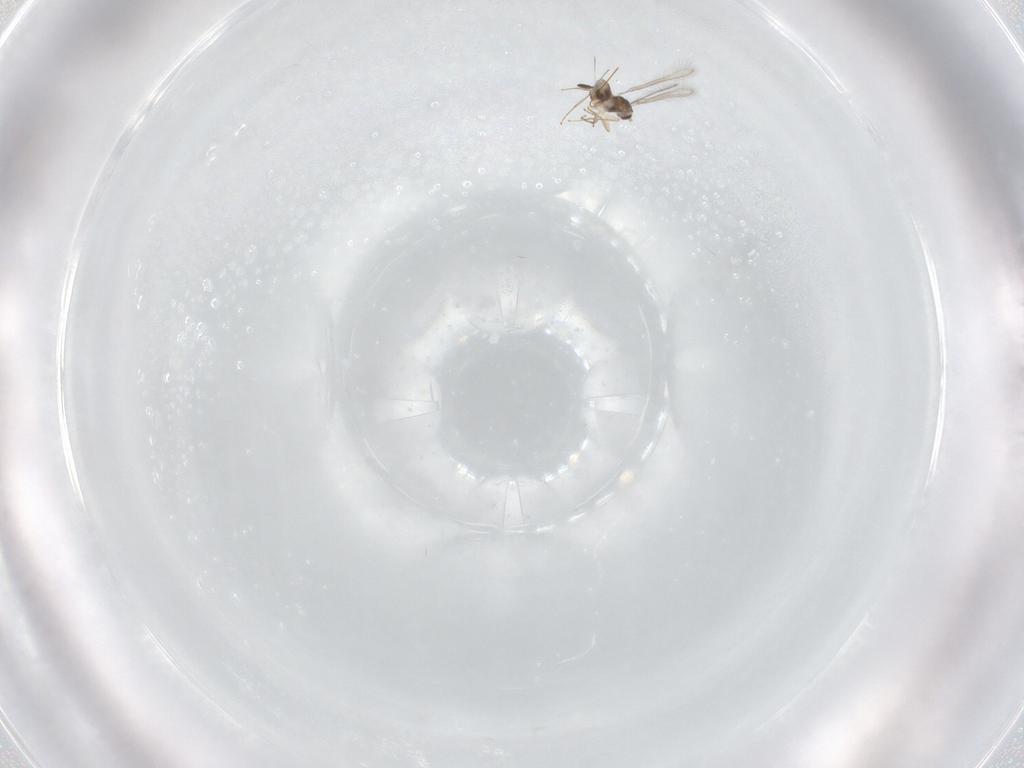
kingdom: Animalia
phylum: Arthropoda
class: Insecta
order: Hymenoptera
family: Mymaridae
